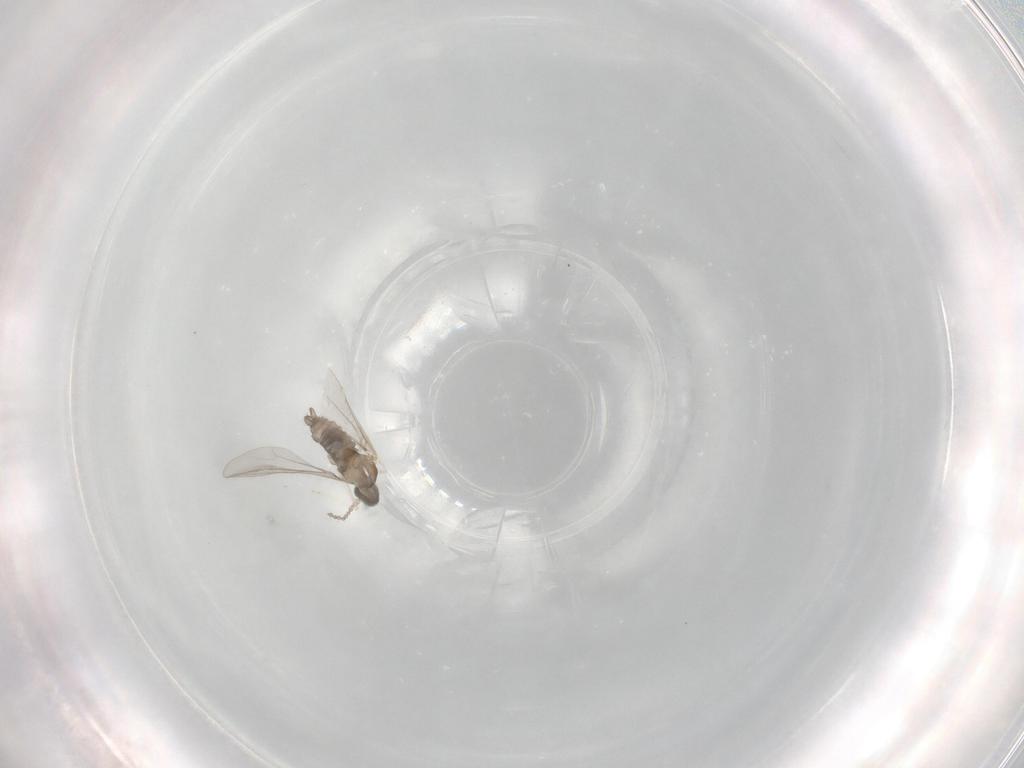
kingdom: Animalia
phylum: Arthropoda
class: Insecta
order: Diptera
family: Cecidomyiidae
